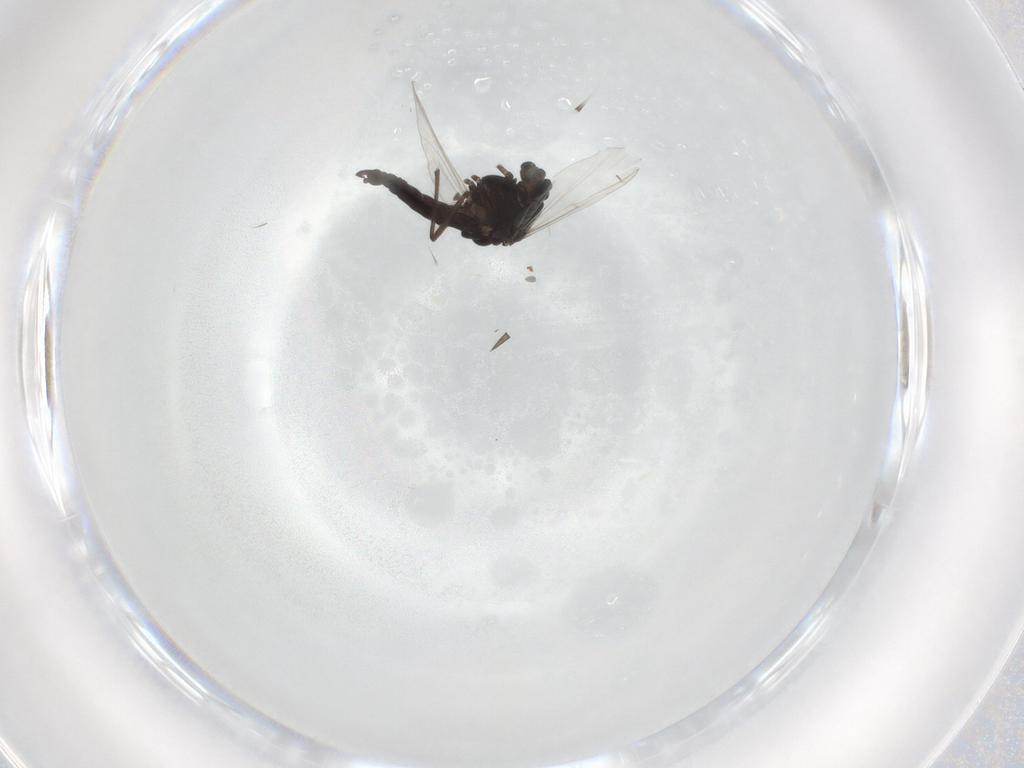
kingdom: Animalia
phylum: Arthropoda
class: Insecta
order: Diptera
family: Chironomidae
